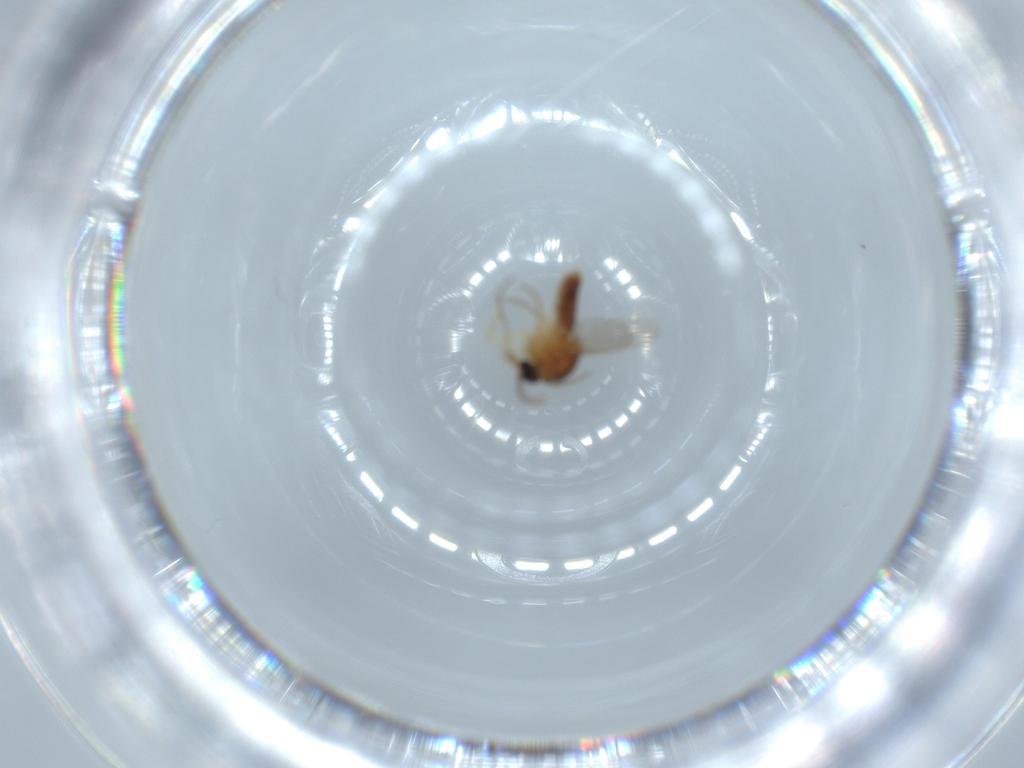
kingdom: Animalia
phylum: Arthropoda
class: Insecta
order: Diptera
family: Ceratopogonidae
